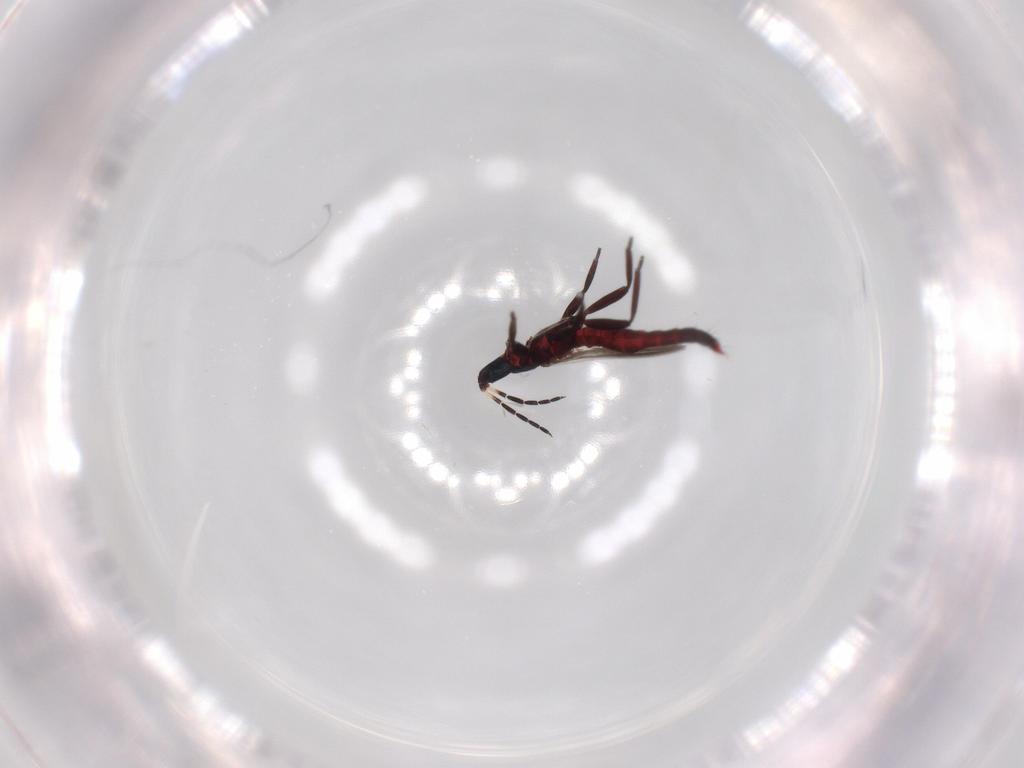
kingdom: Animalia
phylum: Arthropoda
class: Insecta
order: Thysanoptera
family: Aeolothripidae
